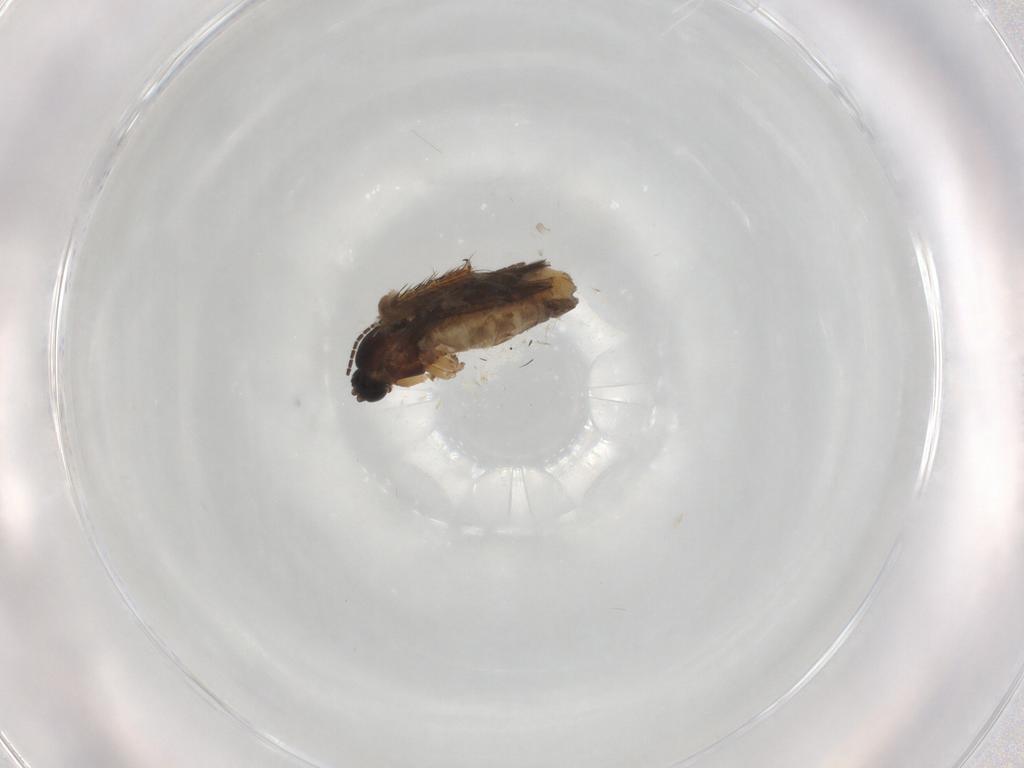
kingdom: Animalia
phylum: Arthropoda
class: Insecta
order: Diptera
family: Sciaridae
